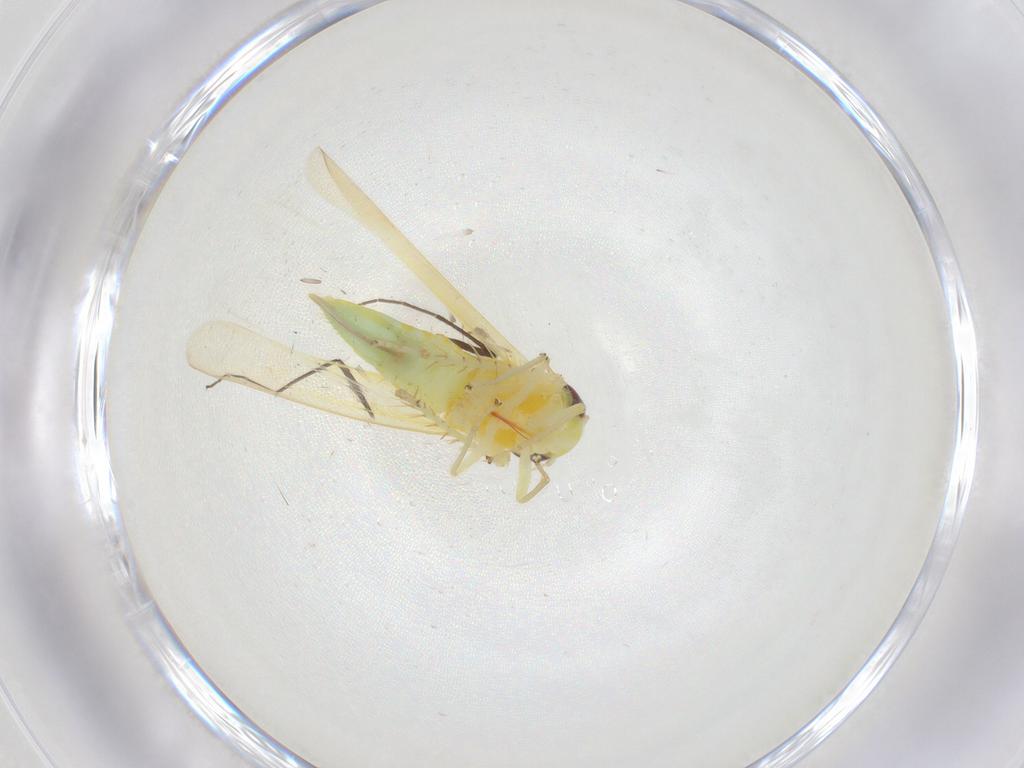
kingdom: Animalia
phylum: Arthropoda
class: Insecta
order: Hemiptera
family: Cicadellidae
